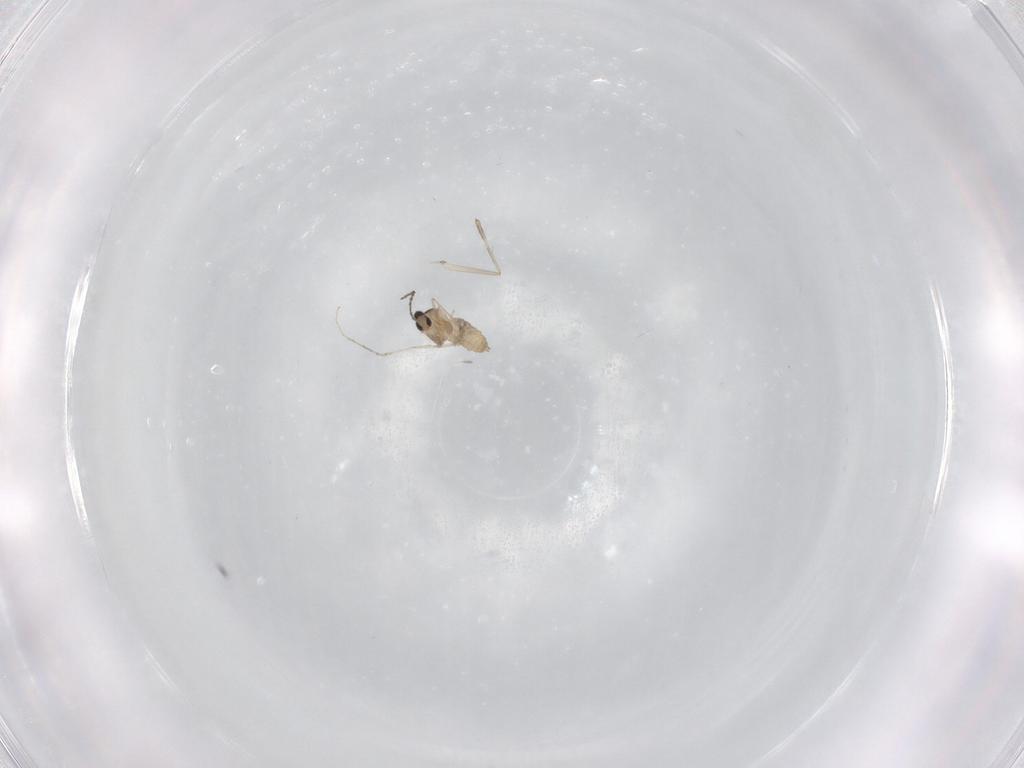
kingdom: Animalia
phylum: Arthropoda
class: Insecta
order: Diptera
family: Cecidomyiidae
